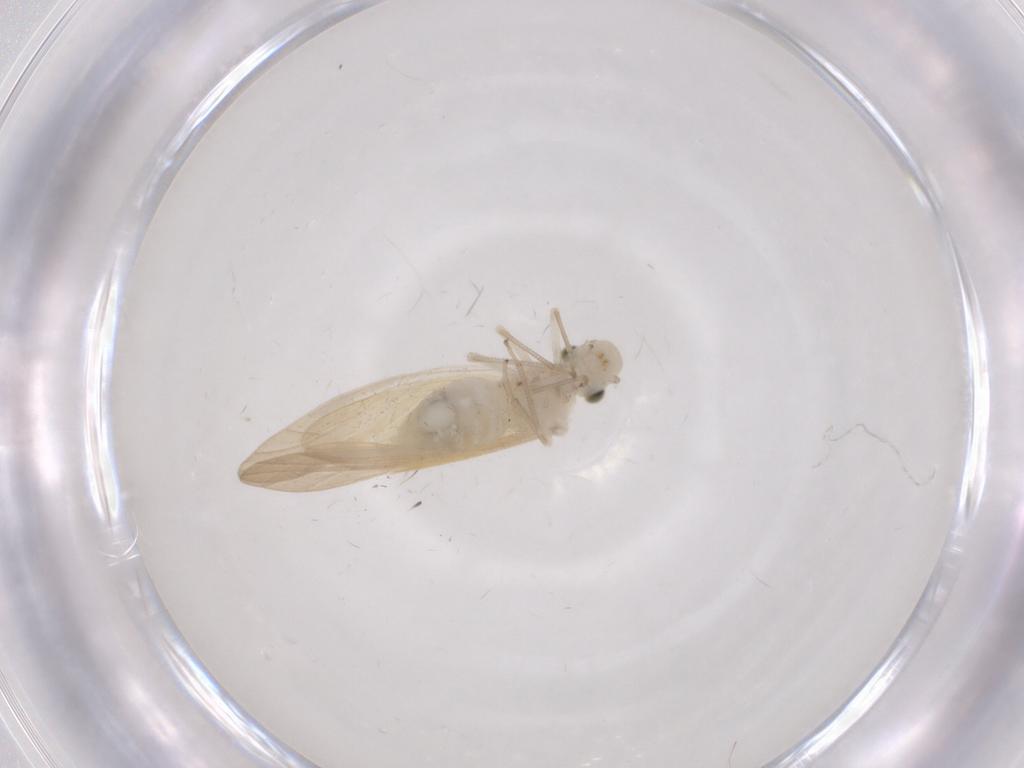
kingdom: Animalia
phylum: Arthropoda
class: Insecta
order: Psocodea
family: Caeciliusidae
